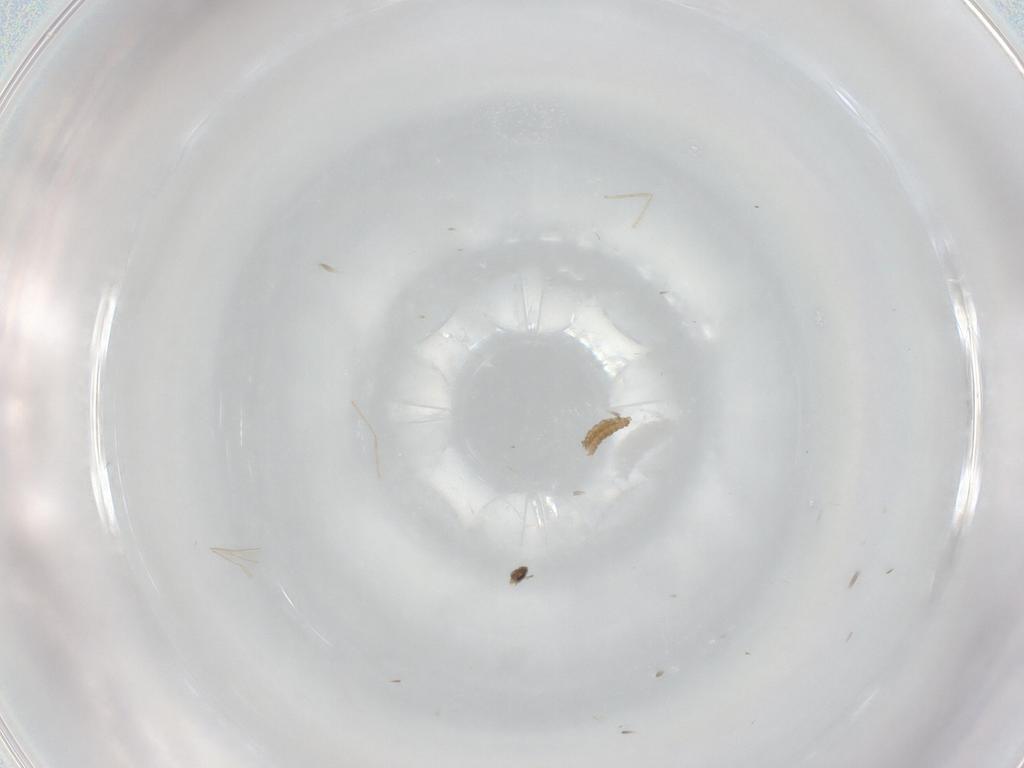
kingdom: Animalia
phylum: Arthropoda
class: Insecta
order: Diptera
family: Cecidomyiidae
